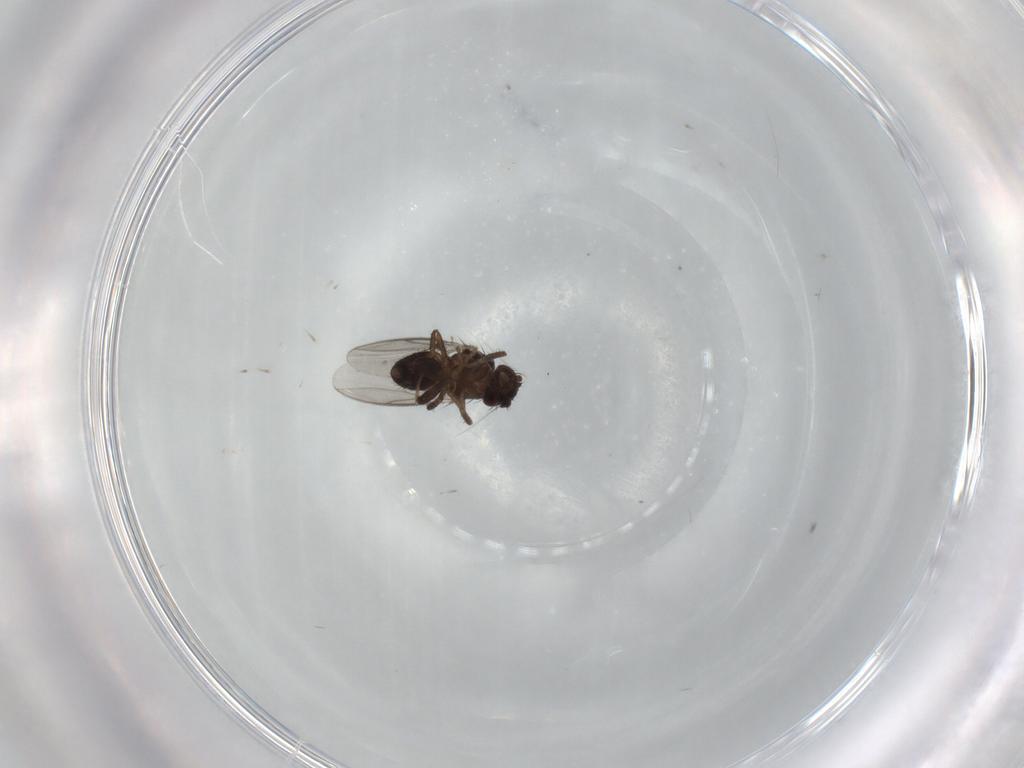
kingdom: Animalia
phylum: Arthropoda
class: Insecta
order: Diptera
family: Sphaeroceridae
